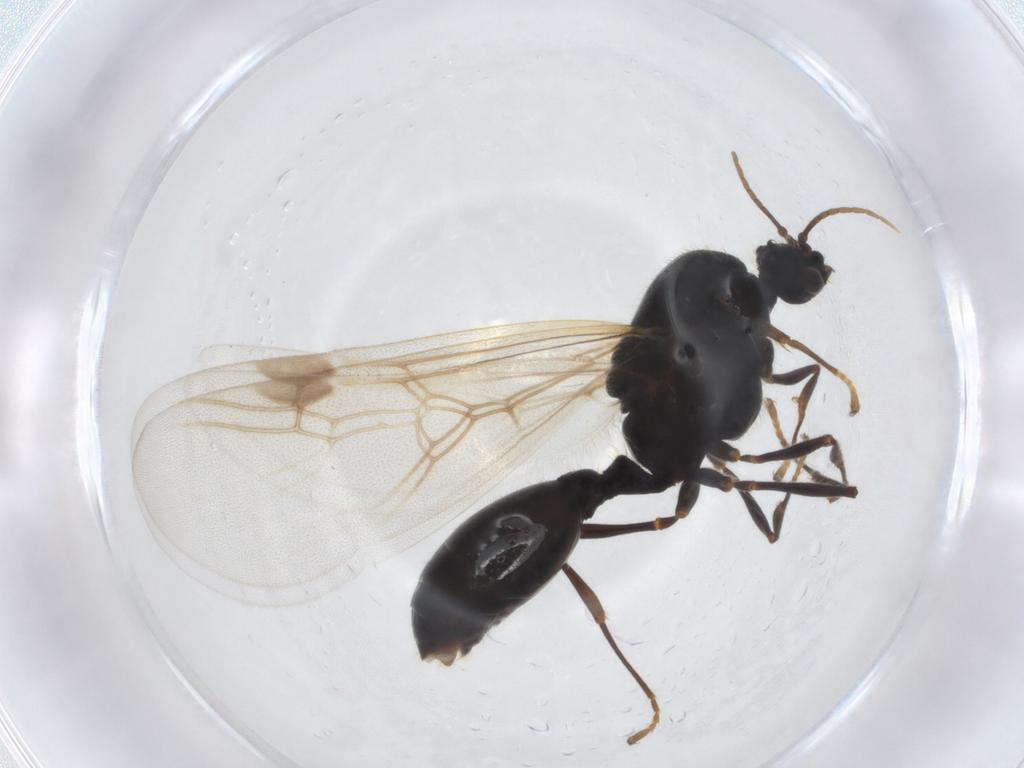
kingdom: Animalia
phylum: Arthropoda
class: Insecta
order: Hymenoptera
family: Formicidae
